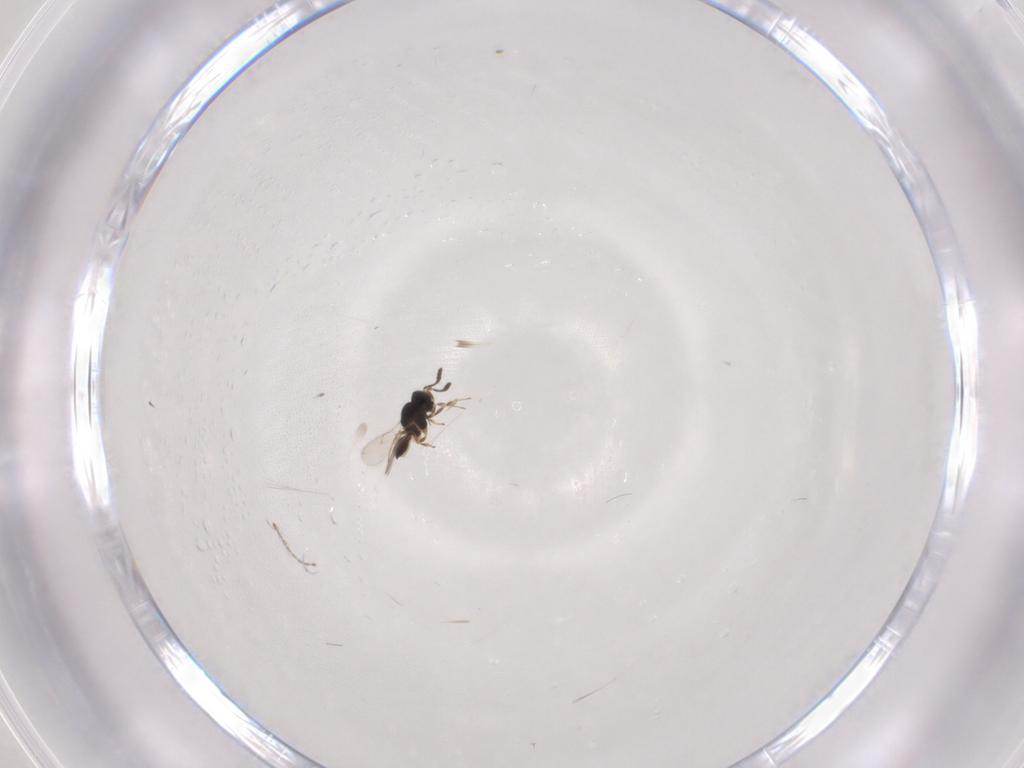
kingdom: Animalia
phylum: Arthropoda
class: Insecta
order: Hymenoptera
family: Scelionidae
